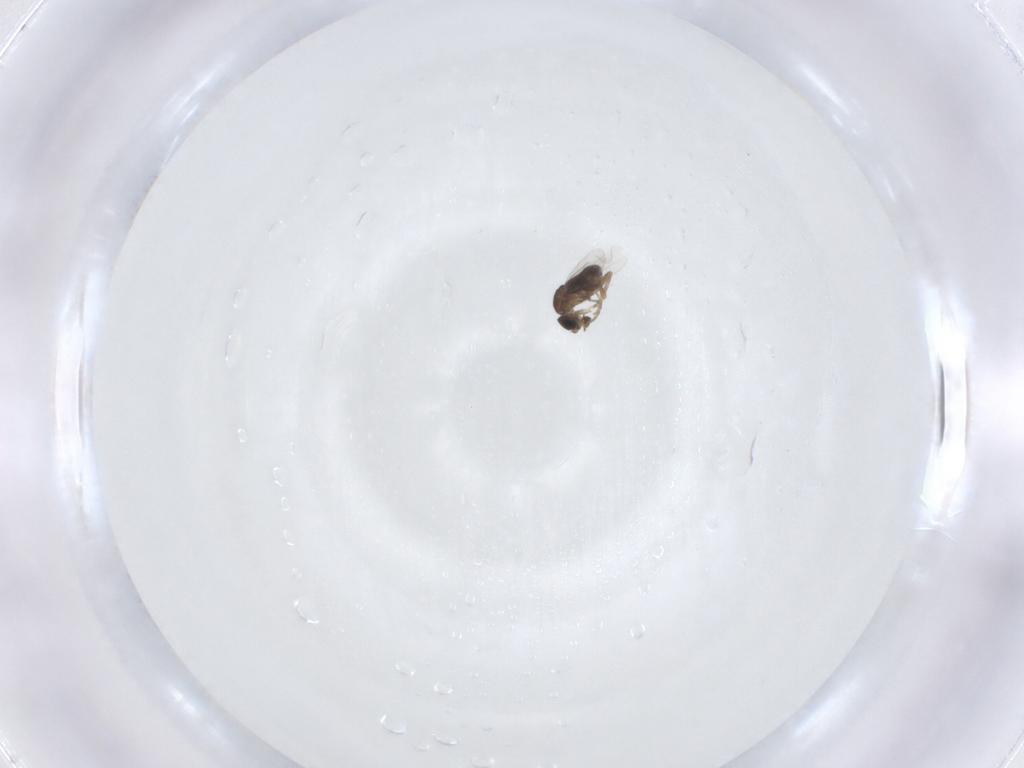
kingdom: Animalia
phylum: Arthropoda
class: Insecta
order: Diptera
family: Phoridae
